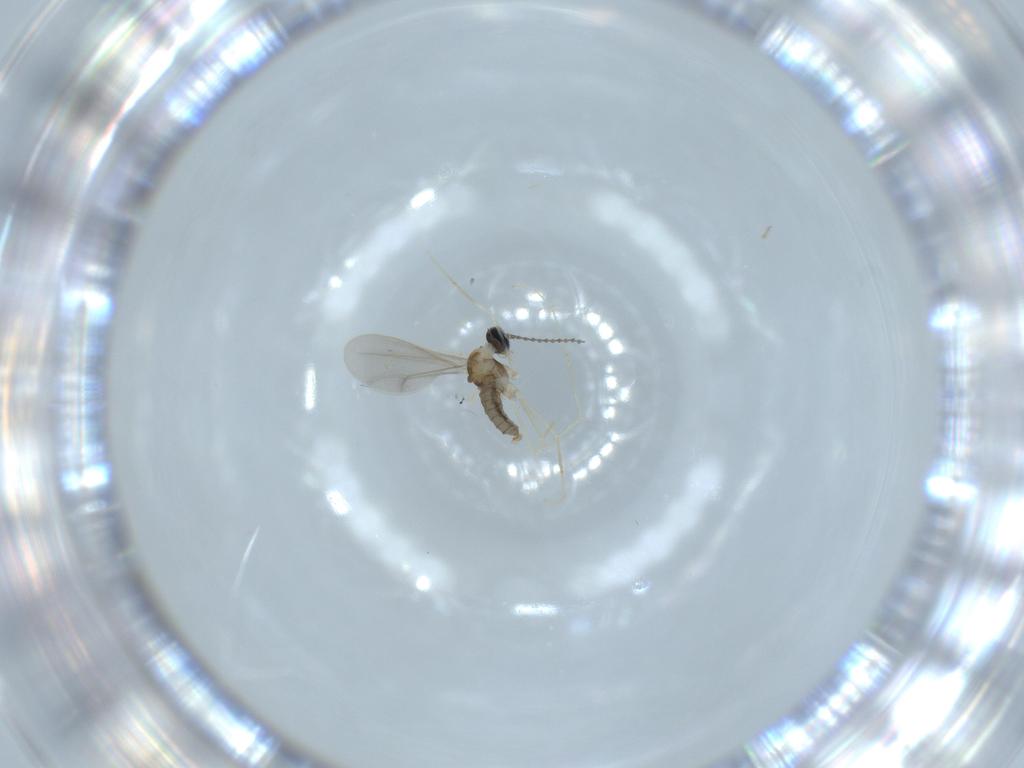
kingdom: Animalia
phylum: Arthropoda
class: Insecta
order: Diptera
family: Cecidomyiidae
